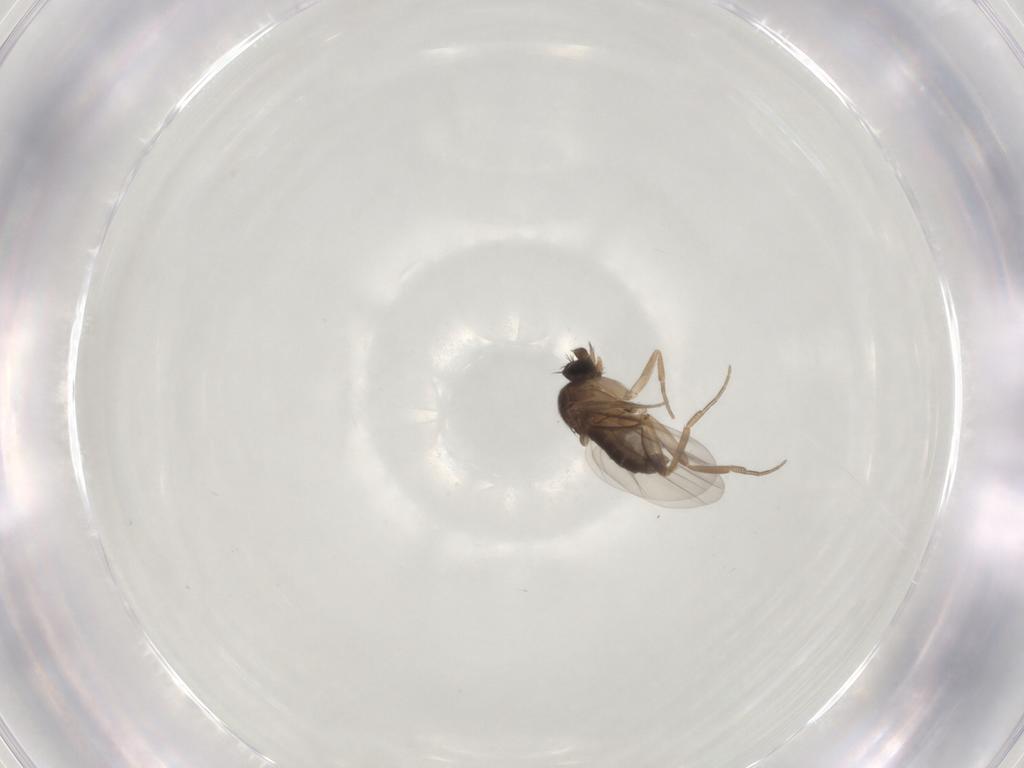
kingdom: Animalia
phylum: Arthropoda
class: Insecta
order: Diptera
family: Phoridae
